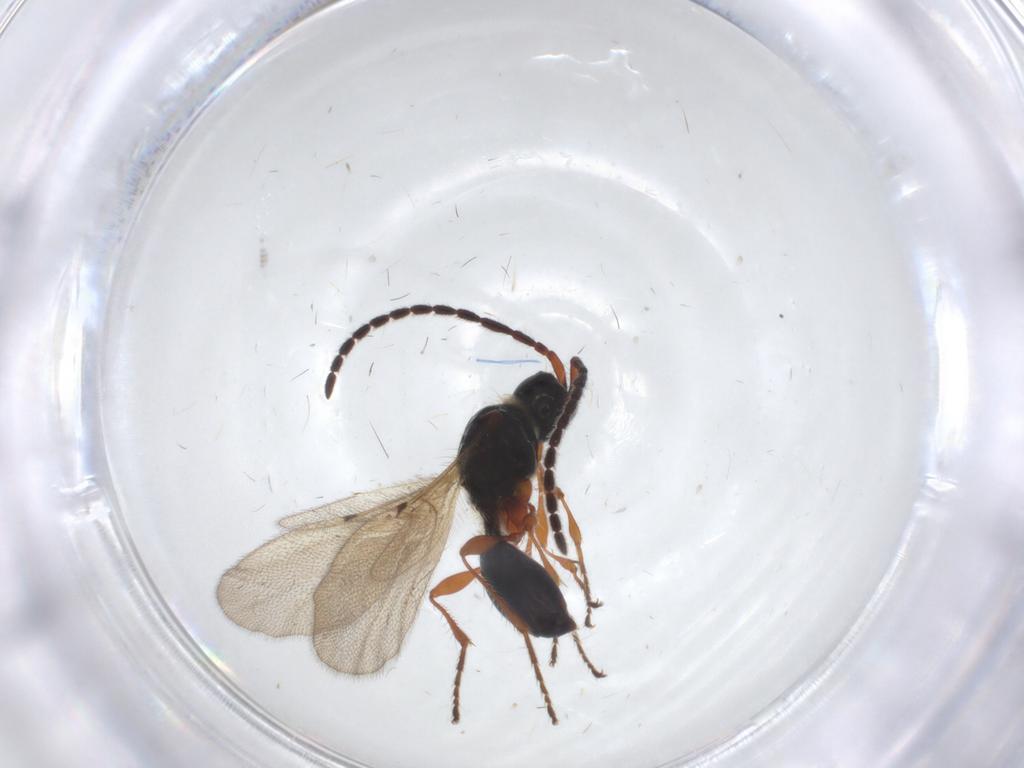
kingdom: Animalia
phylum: Arthropoda
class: Insecta
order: Hymenoptera
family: Diapriidae
